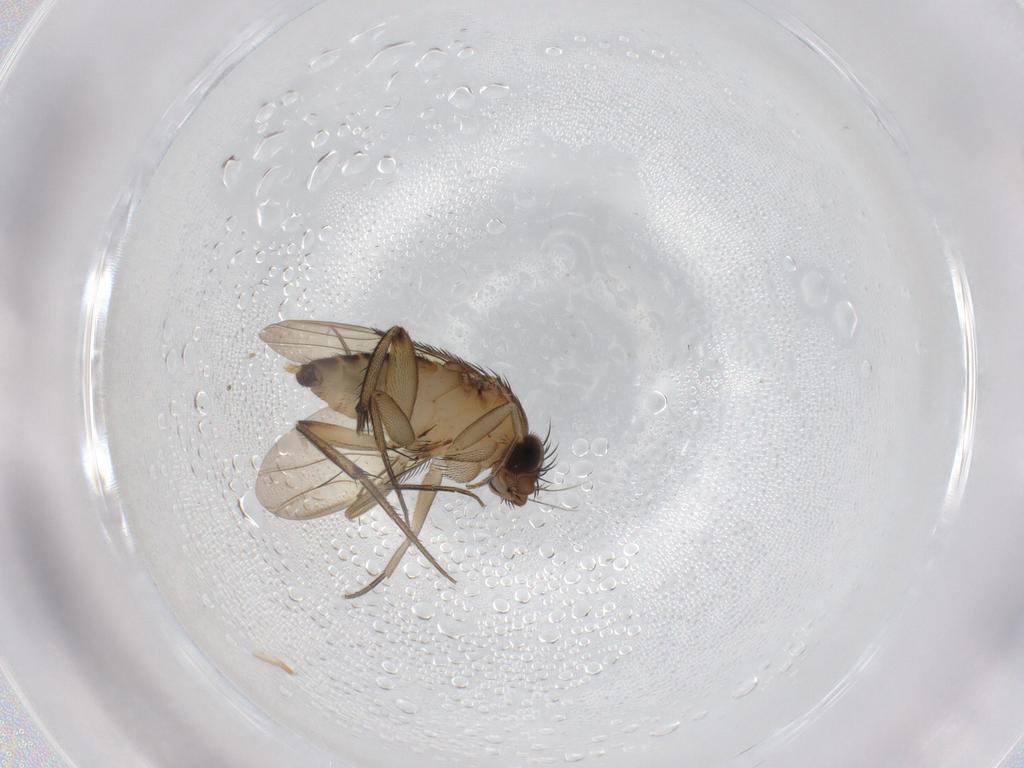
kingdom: Animalia
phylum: Arthropoda
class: Insecta
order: Diptera
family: Phoridae
